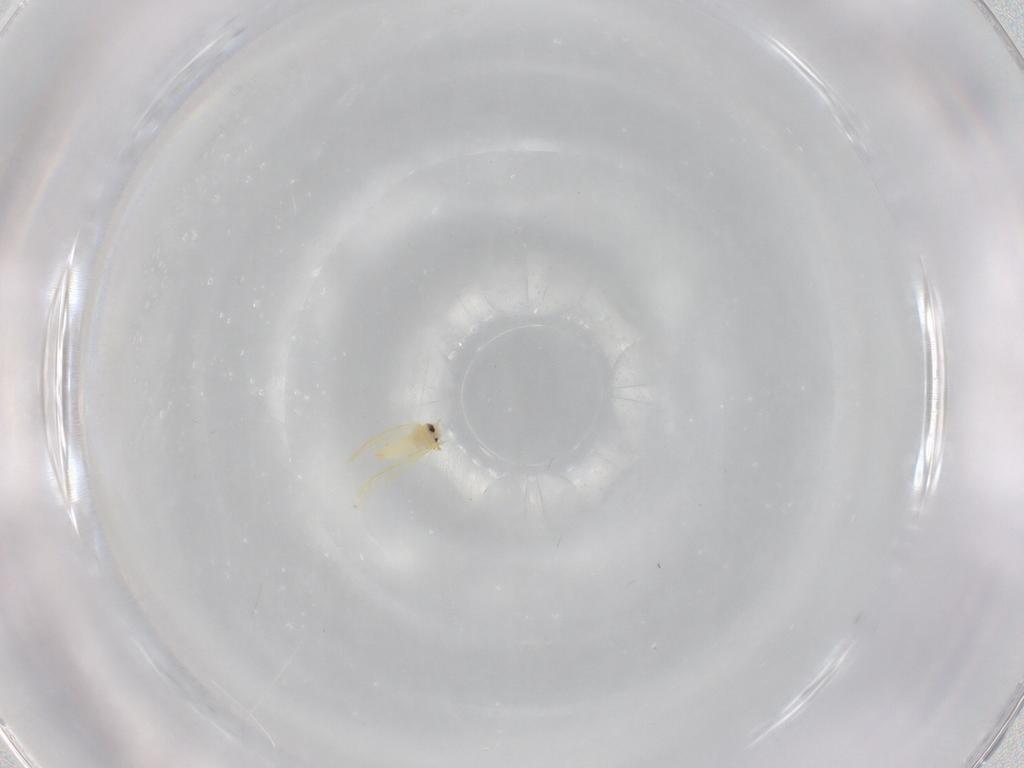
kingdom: Animalia
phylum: Arthropoda
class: Insecta
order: Hemiptera
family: Aleyrodidae
